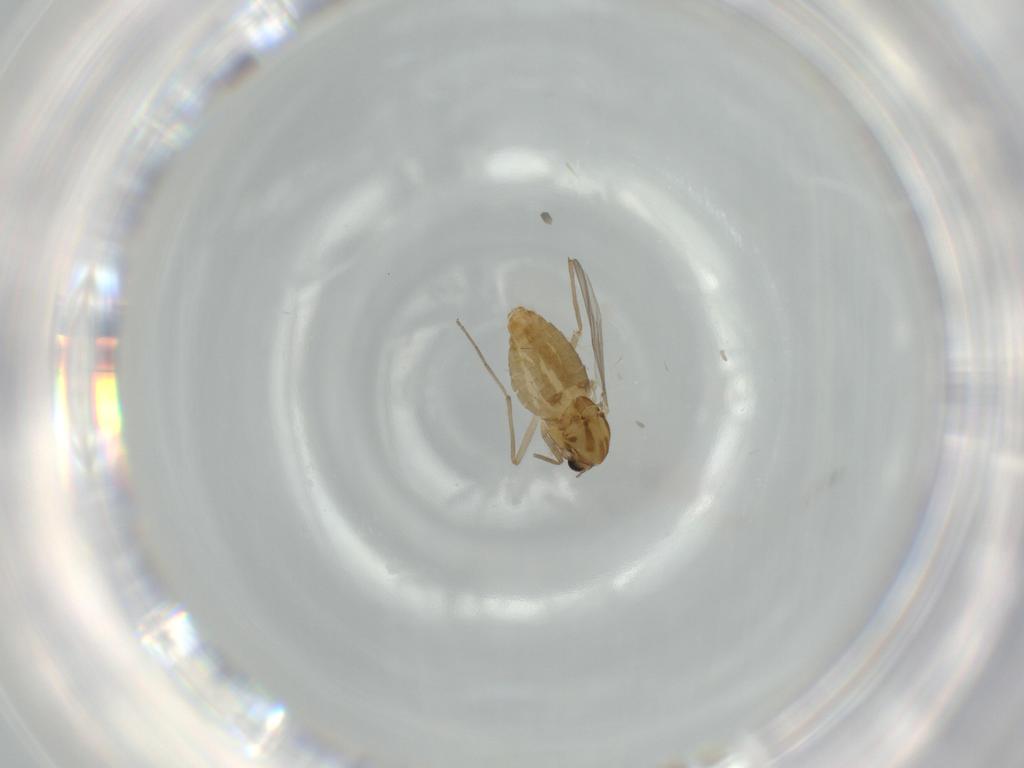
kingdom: Animalia
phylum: Arthropoda
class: Insecta
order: Diptera
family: Chironomidae
